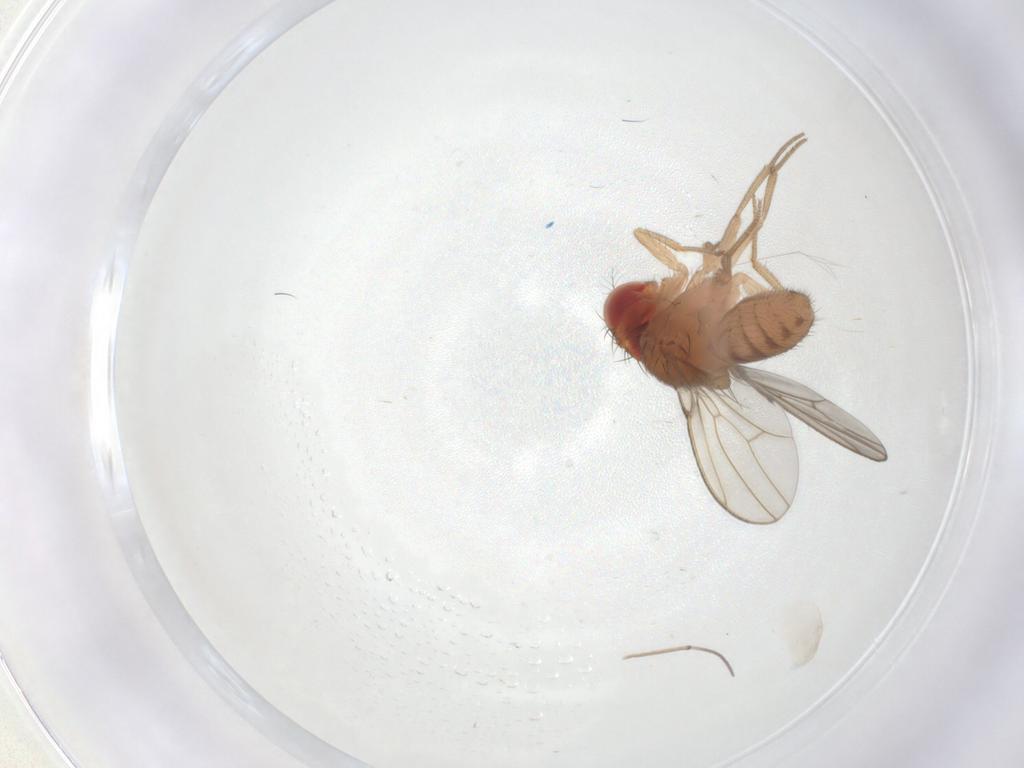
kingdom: Animalia
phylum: Arthropoda
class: Insecta
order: Diptera
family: Drosophilidae
